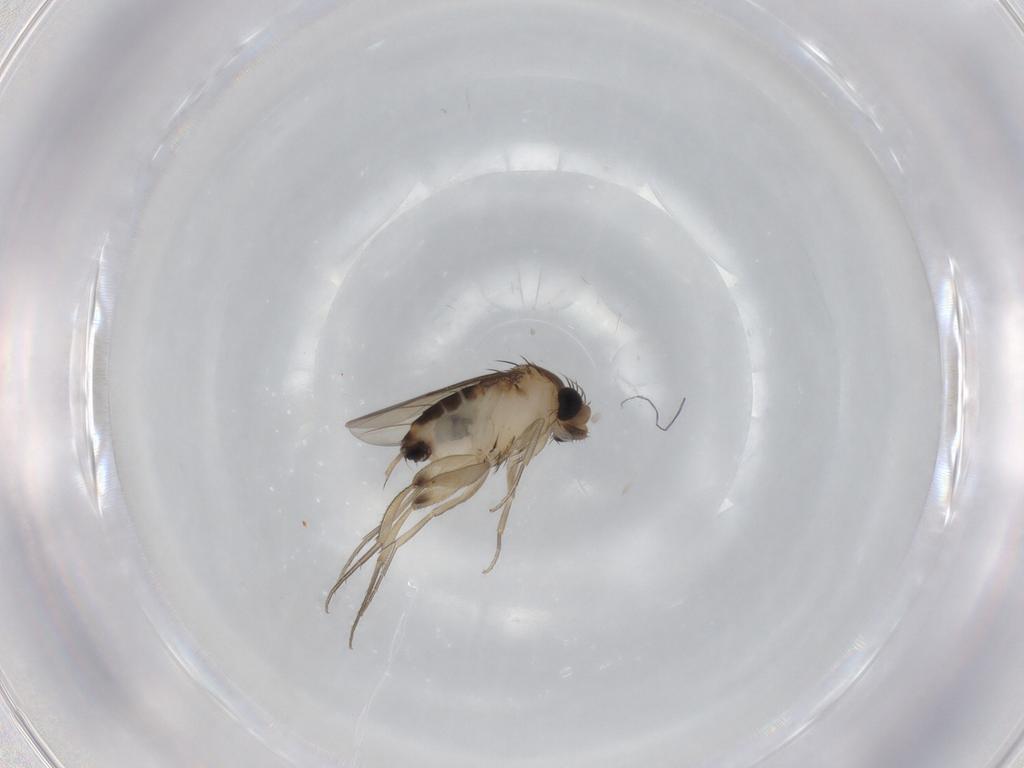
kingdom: Animalia
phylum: Arthropoda
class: Insecta
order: Diptera
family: Phoridae
